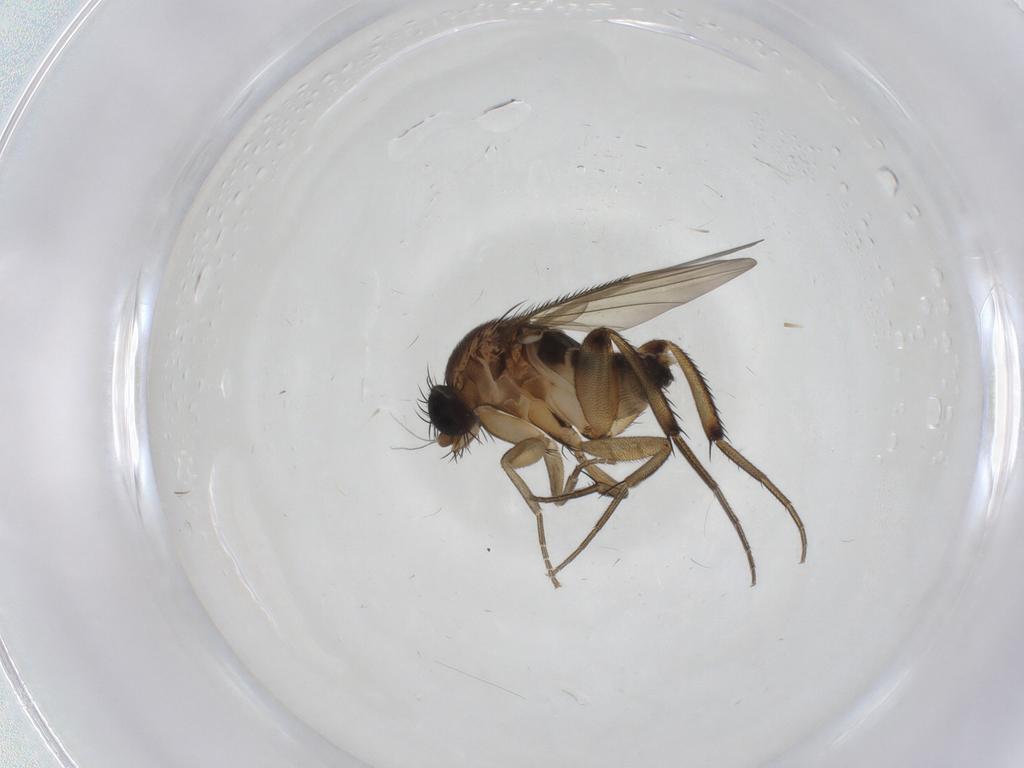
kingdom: Animalia
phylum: Arthropoda
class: Insecta
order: Diptera
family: Phoridae
